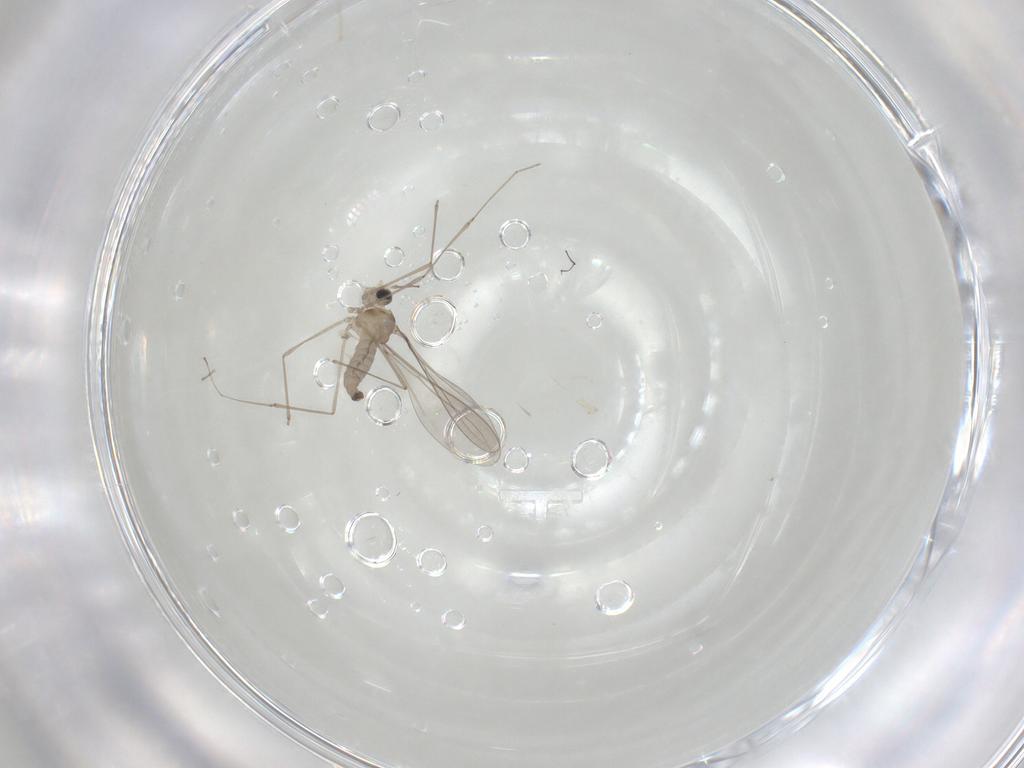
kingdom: Animalia
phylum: Arthropoda
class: Insecta
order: Diptera
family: Cecidomyiidae
